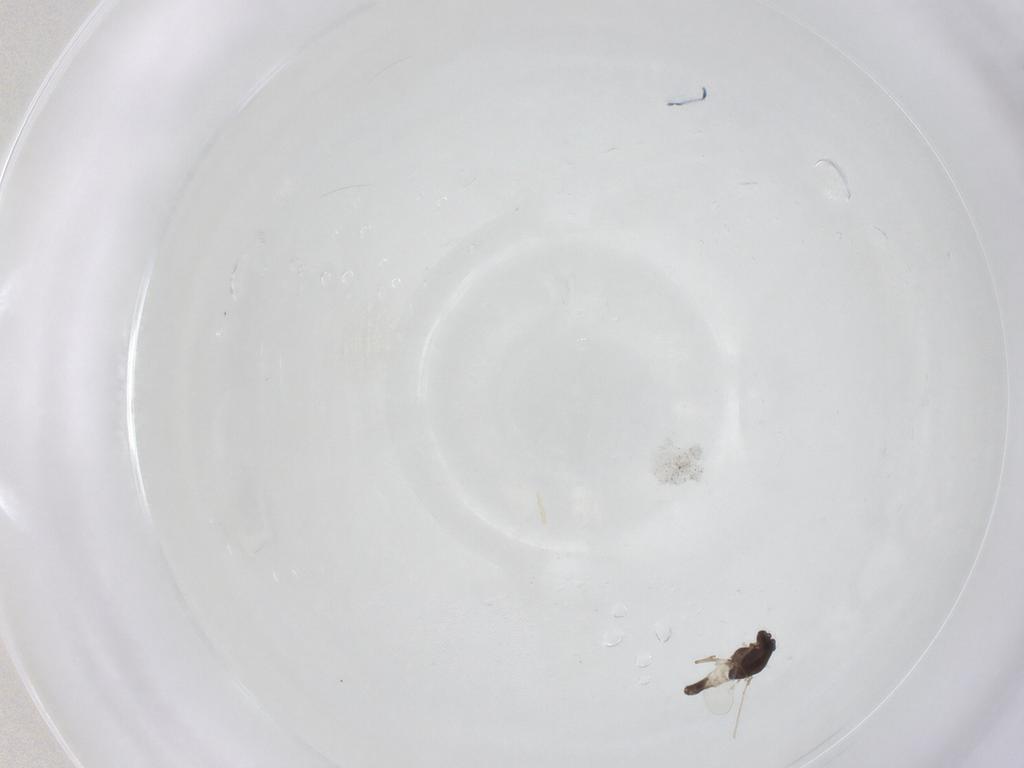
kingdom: Animalia
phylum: Arthropoda
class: Insecta
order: Diptera
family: Chironomidae
